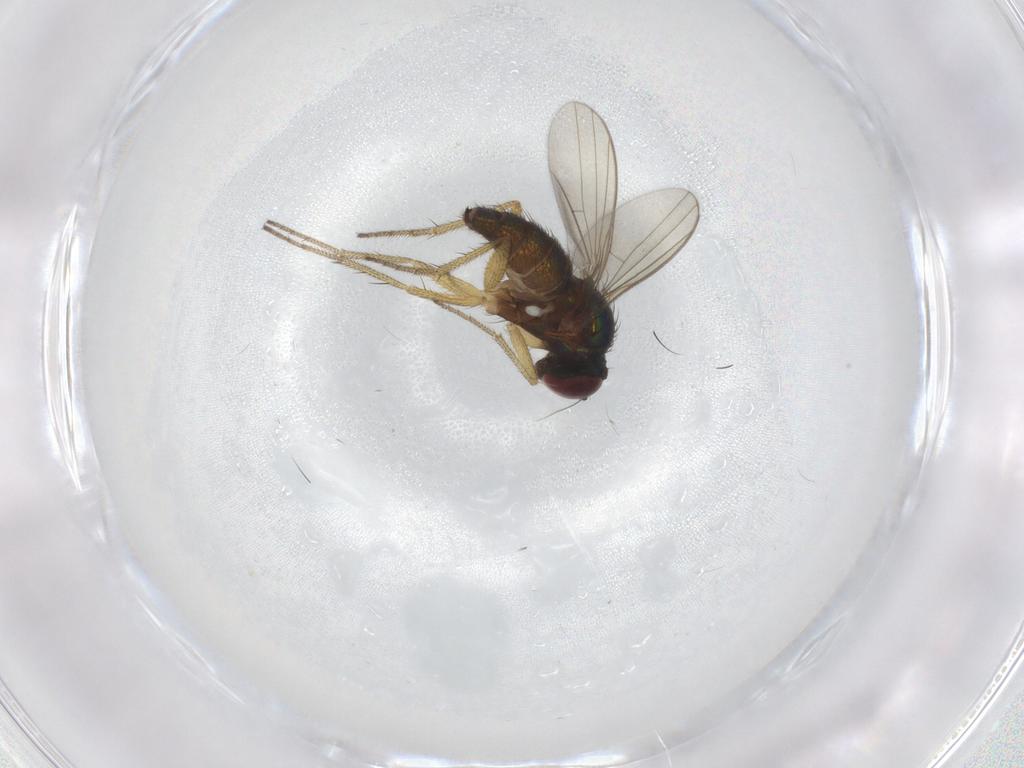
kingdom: Animalia
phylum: Arthropoda
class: Insecta
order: Diptera
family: Dolichopodidae
